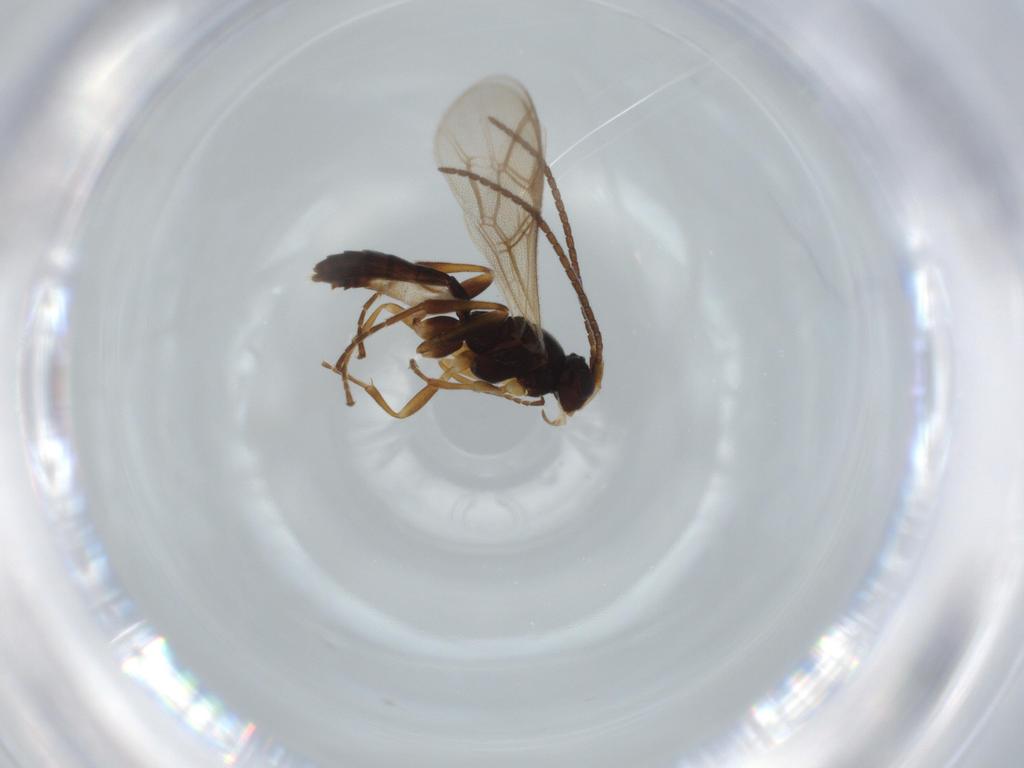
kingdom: Animalia
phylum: Arthropoda
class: Insecta
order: Hymenoptera
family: Ichneumonidae
